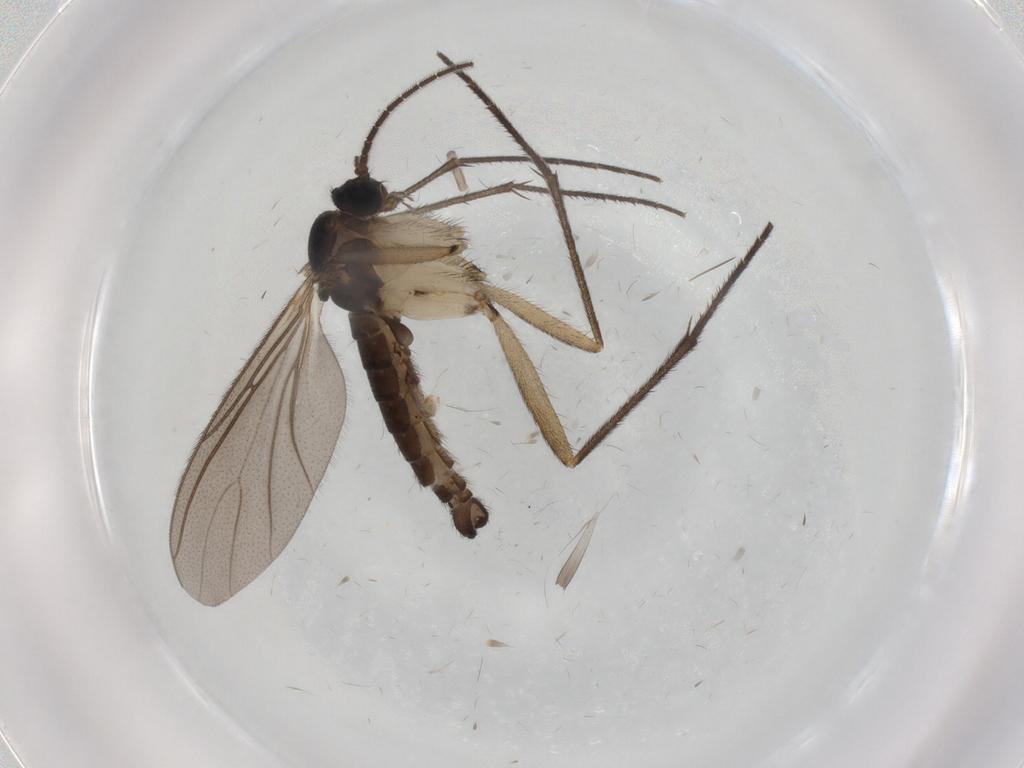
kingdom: Animalia
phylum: Arthropoda
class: Insecta
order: Diptera
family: Sciaridae
